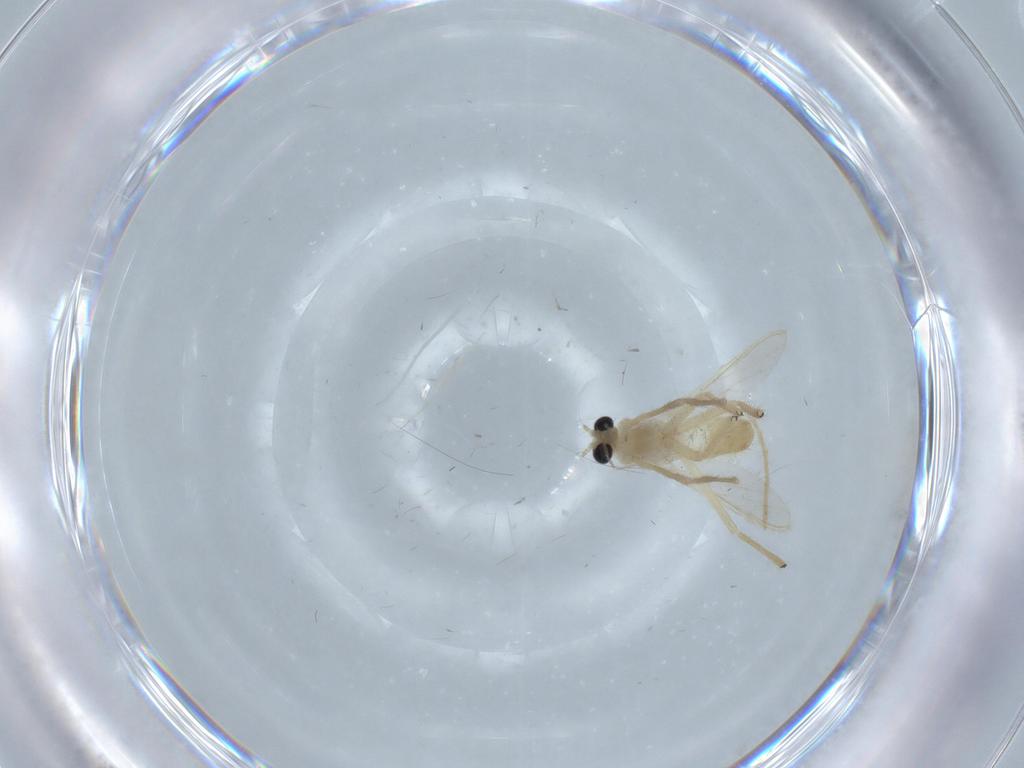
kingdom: Animalia
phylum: Arthropoda
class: Insecta
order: Diptera
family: Chironomidae
